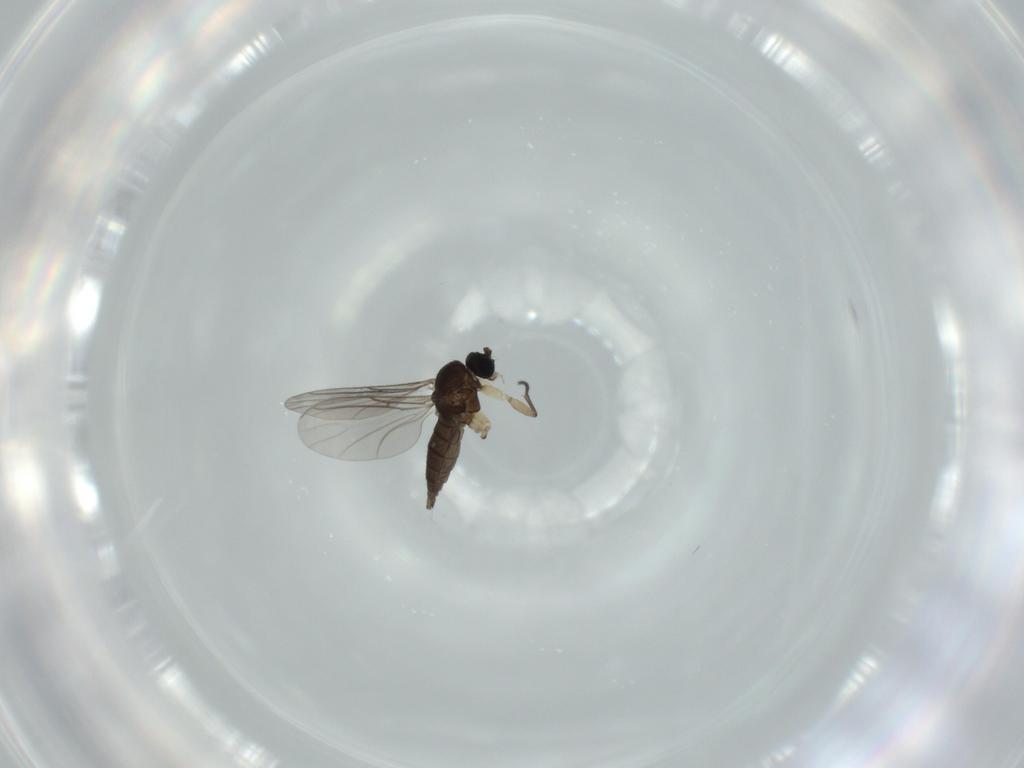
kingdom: Animalia
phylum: Arthropoda
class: Insecta
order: Diptera
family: Sciaridae
